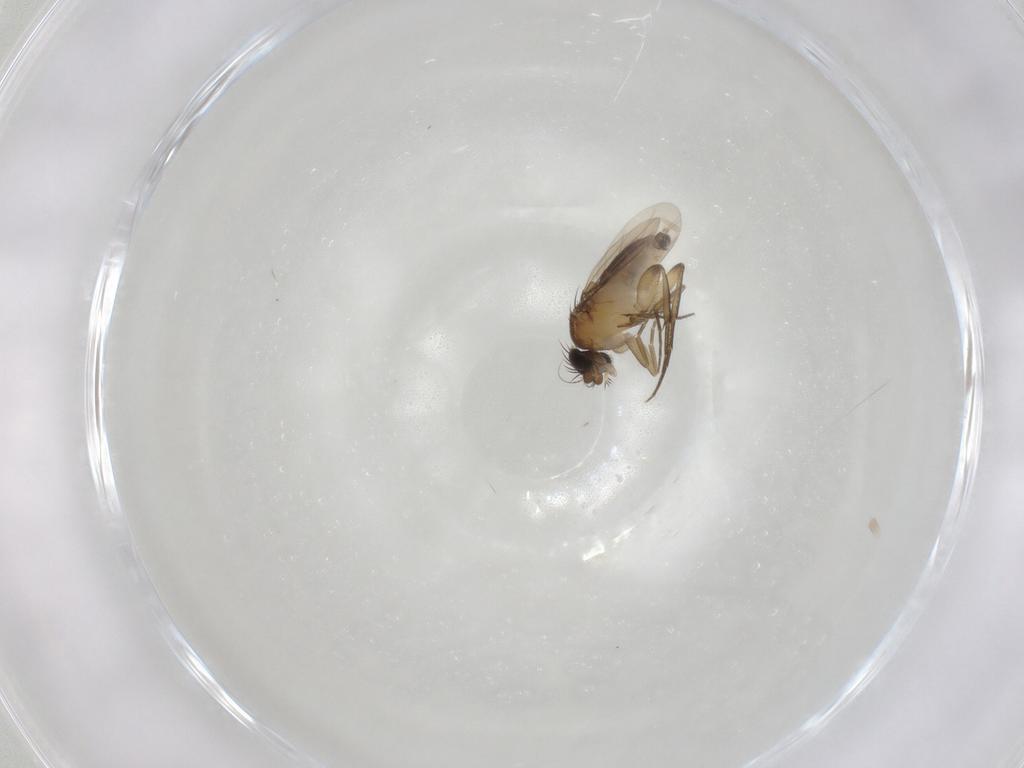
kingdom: Animalia
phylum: Arthropoda
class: Insecta
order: Diptera
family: Phoridae
